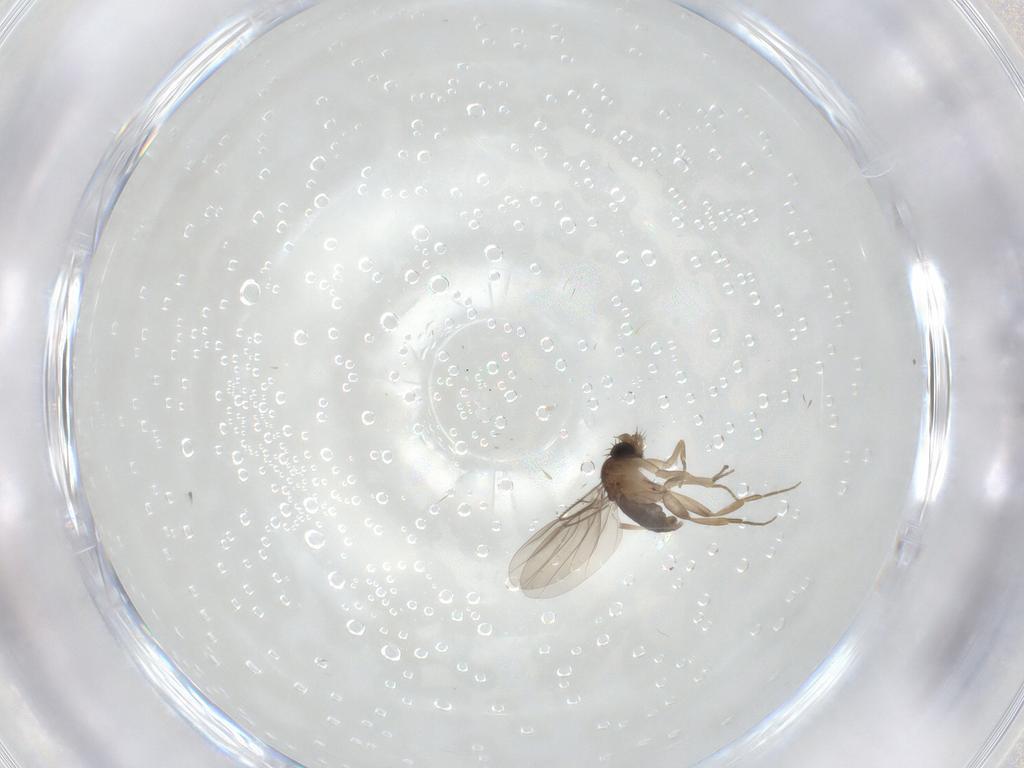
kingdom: Animalia
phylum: Arthropoda
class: Insecta
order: Diptera
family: Phoridae
